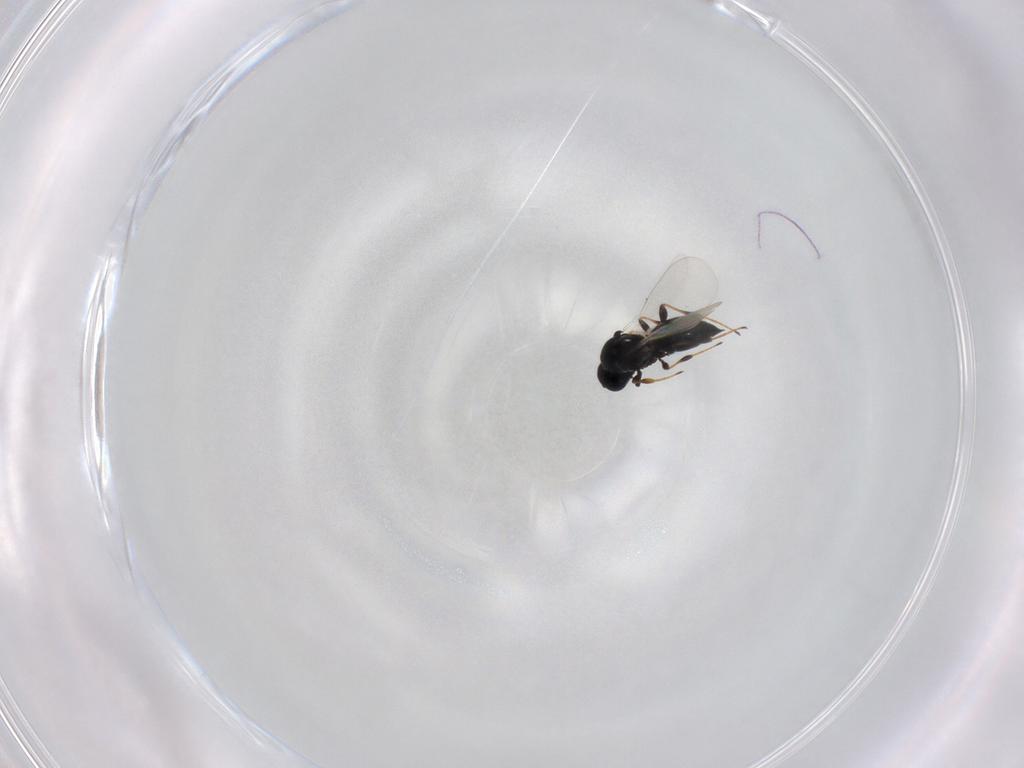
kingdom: Animalia
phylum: Arthropoda
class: Insecta
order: Hymenoptera
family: Platygastridae
